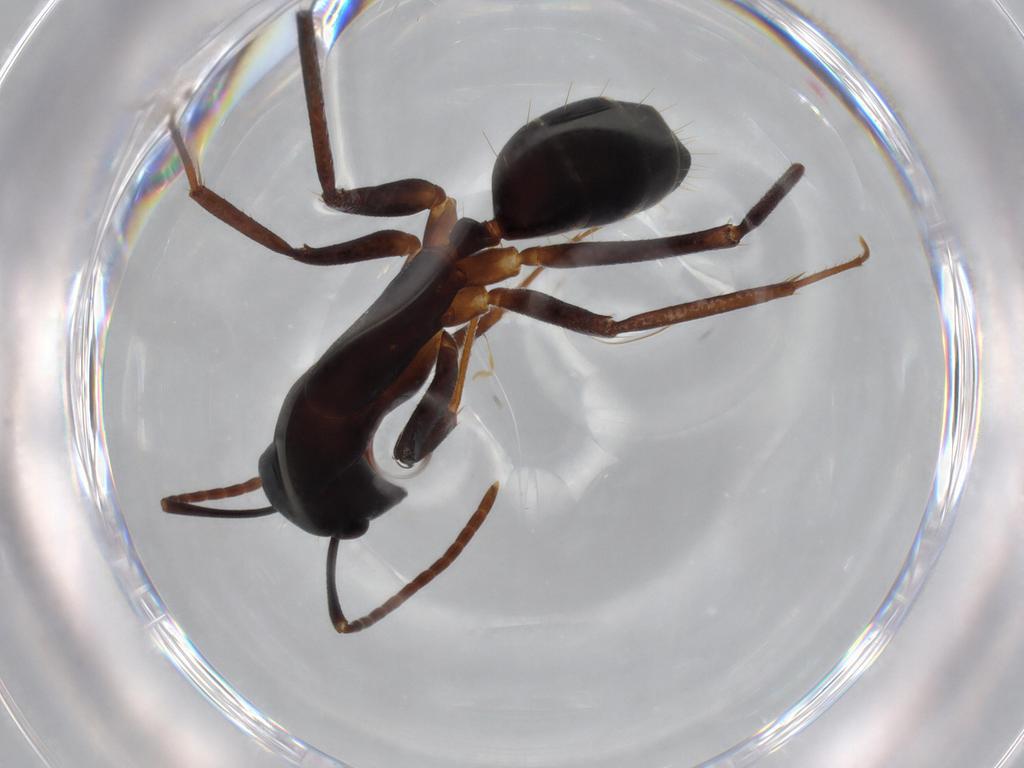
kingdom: Animalia
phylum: Arthropoda
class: Insecta
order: Hymenoptera
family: Formicidae
